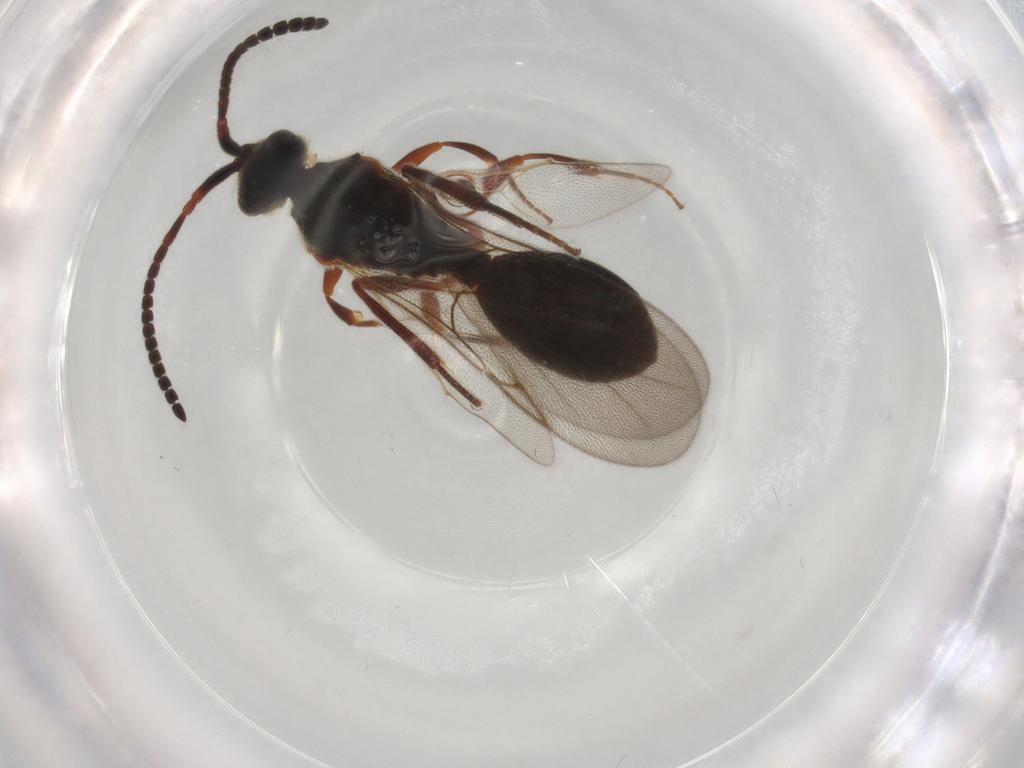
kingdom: Animalia
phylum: Arthropoda
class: Insecta
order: Hymenoptera
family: Diapriidae
